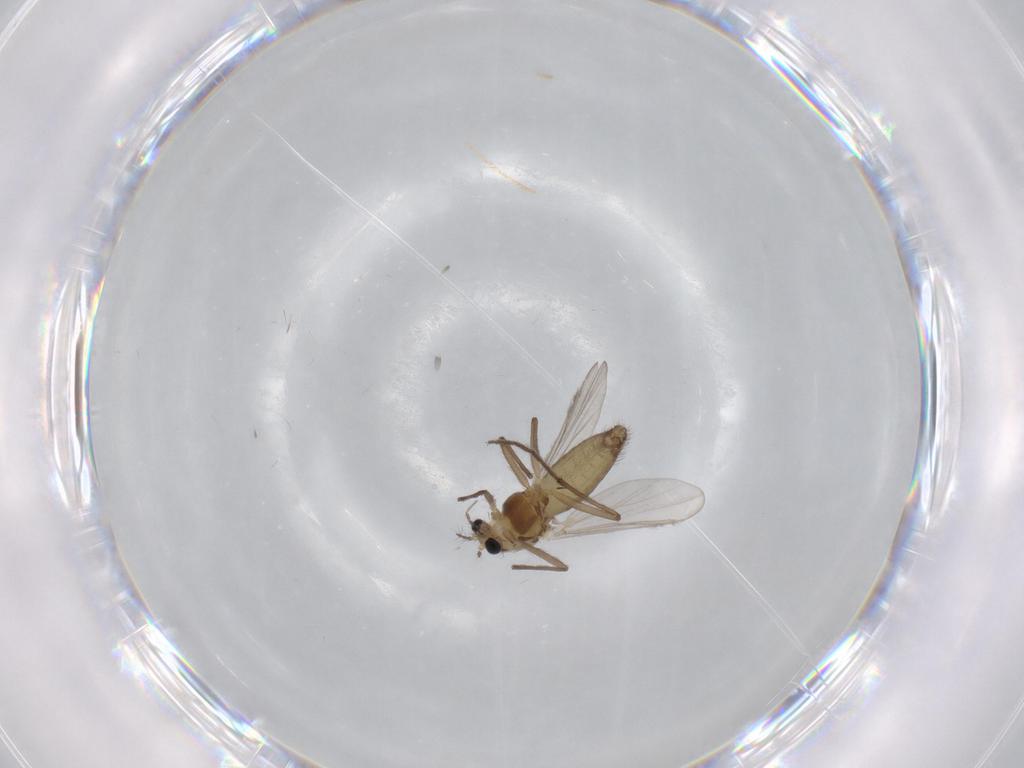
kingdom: Animalia
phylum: Arthropoda
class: Insecta
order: Diptera
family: Chironomidae
